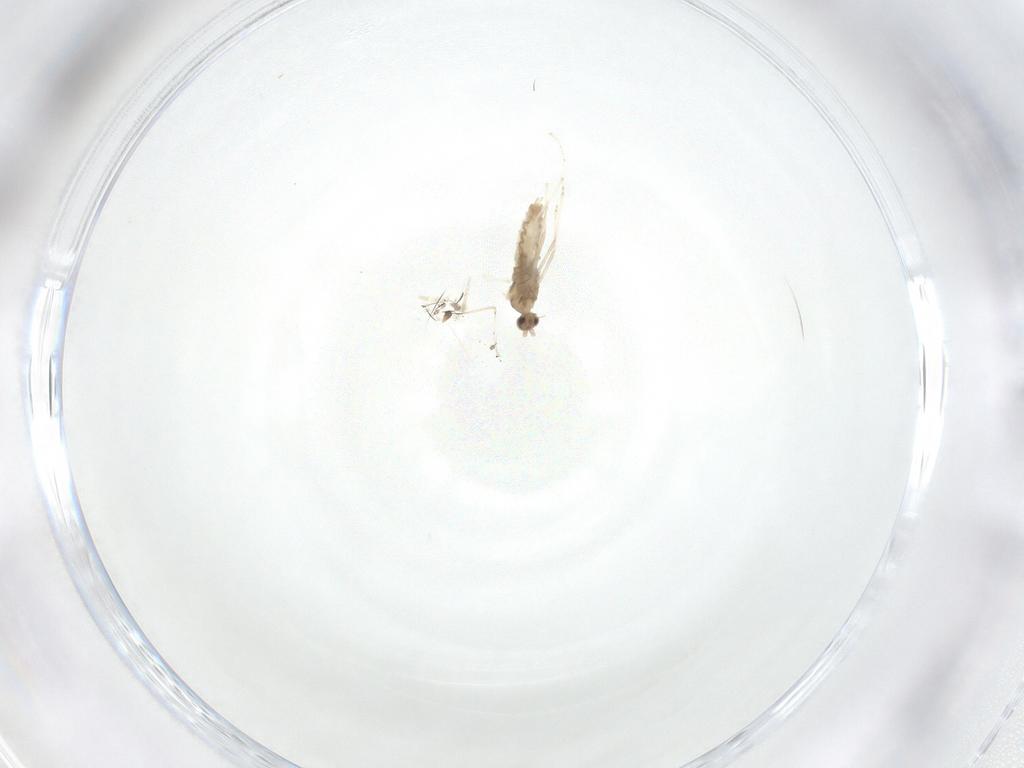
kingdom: Animalia
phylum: Arthropoda
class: Insecta
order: Diptera
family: Cecidomyiidae
